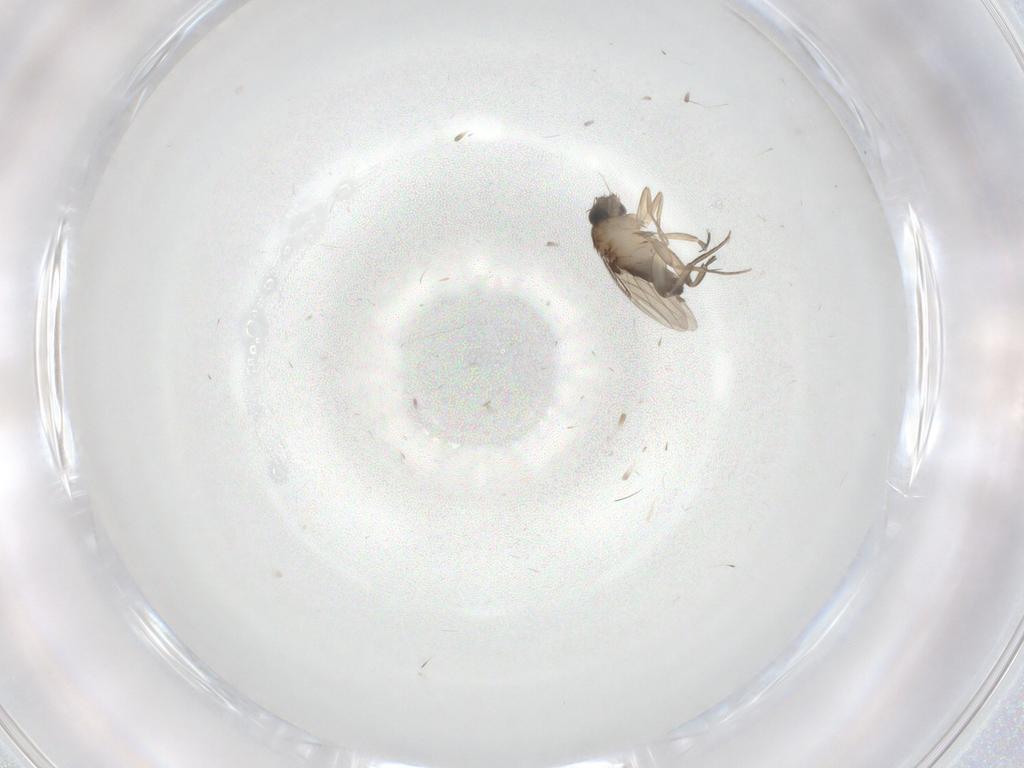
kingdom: Animalia
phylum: Arthropoda
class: Insecta
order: Diptera
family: Phoridae
